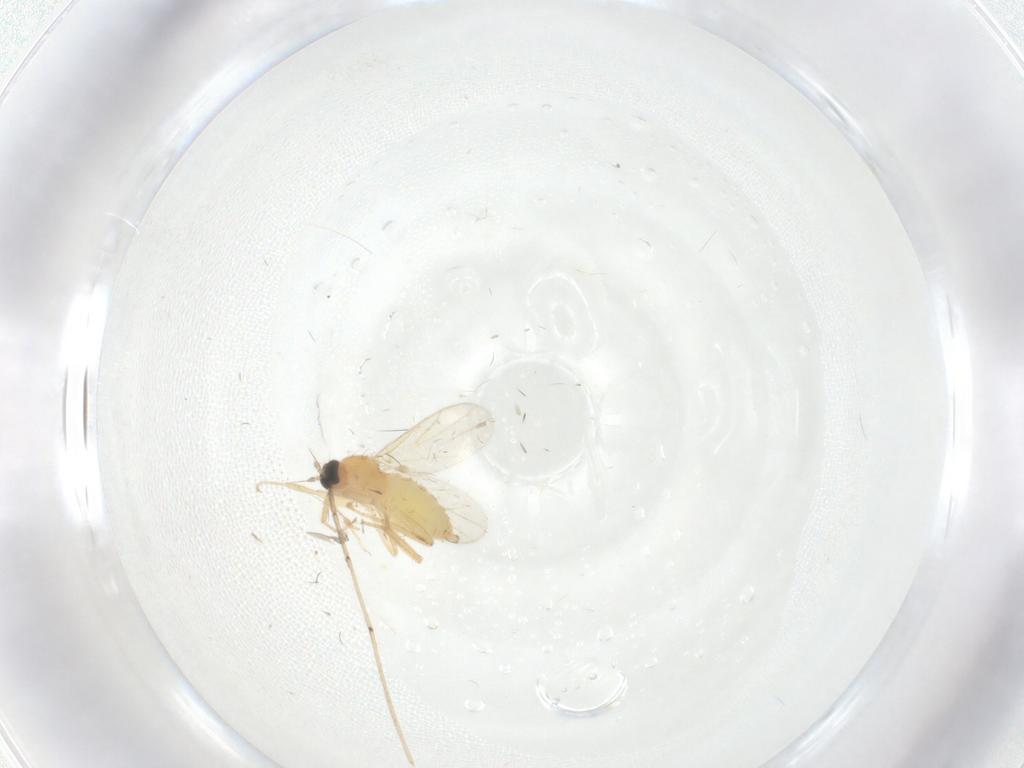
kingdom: Animalia
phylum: Arthropoda
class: Insecta
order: Diptera
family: Hybotidae
